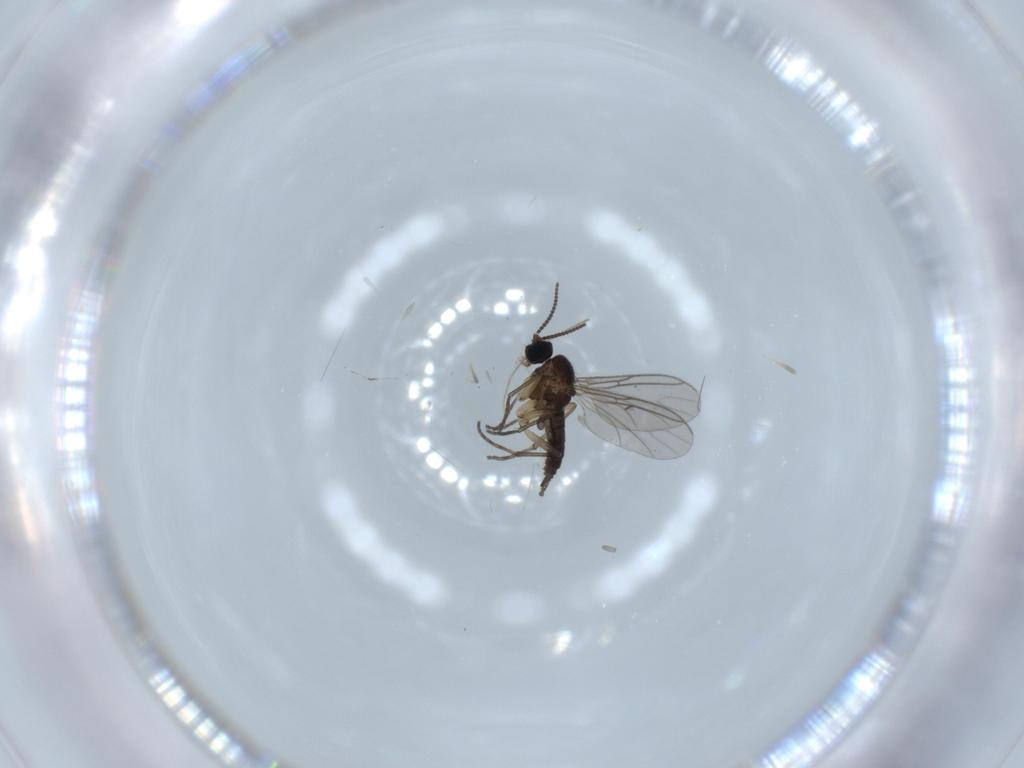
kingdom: Animalia
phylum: Arthropoda
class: Insecta
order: Diptera
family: Sciaridae
